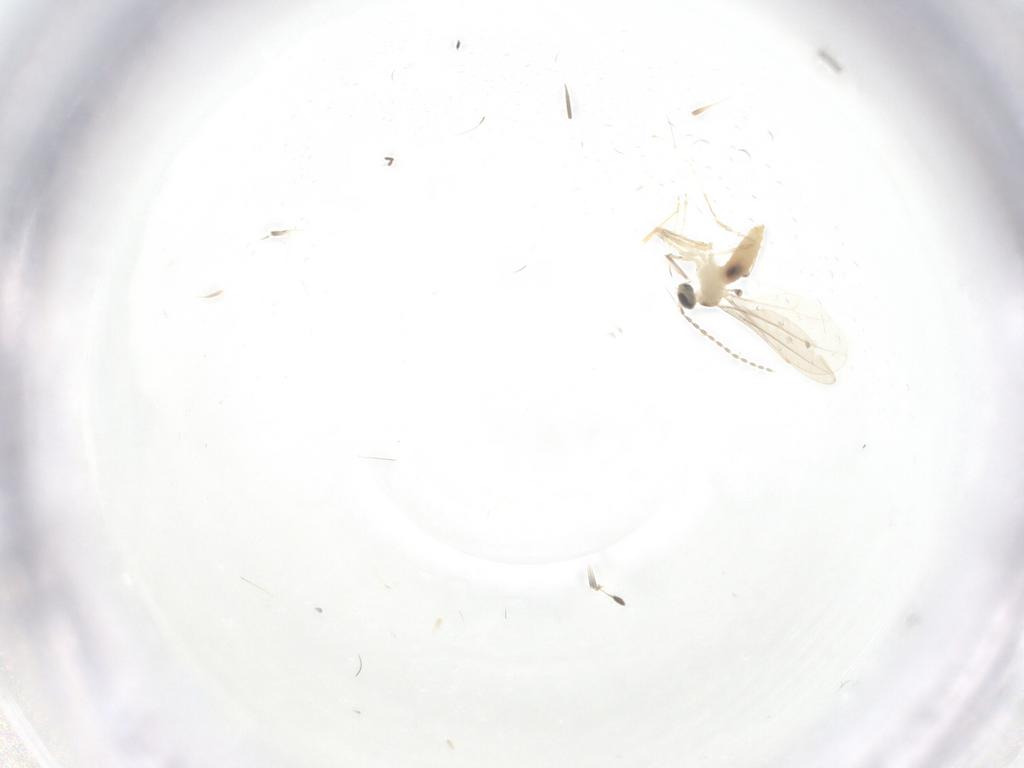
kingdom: Animalia
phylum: Arthropoda
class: Insecta
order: Diptera
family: Cecidomyiidae
